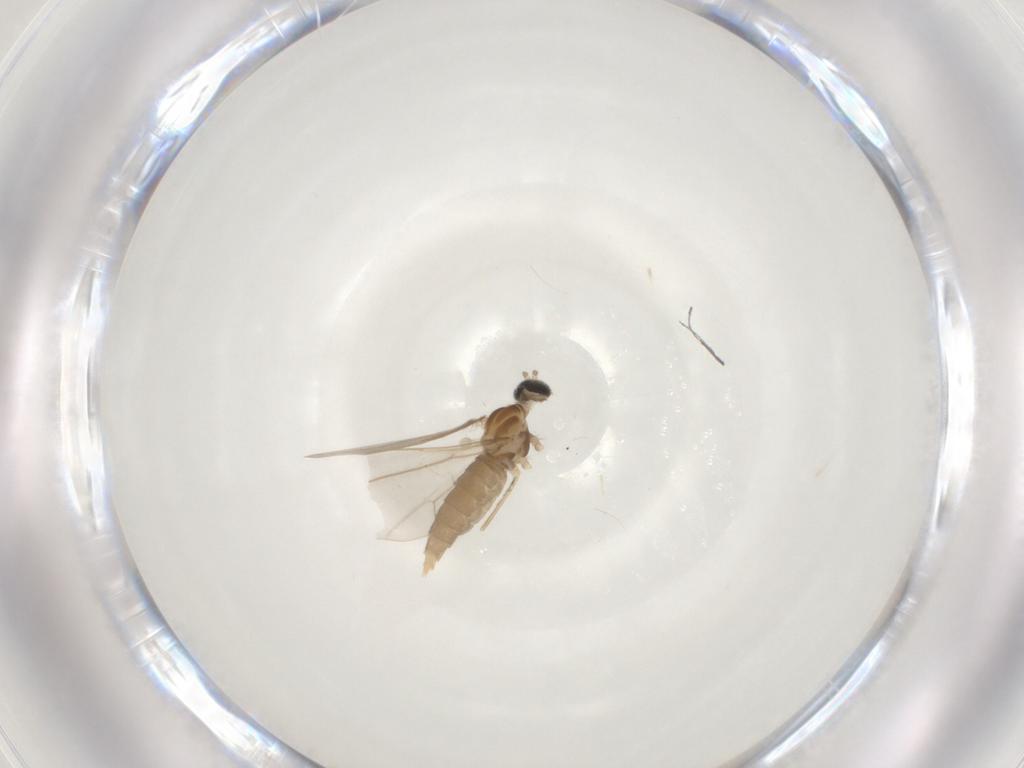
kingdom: Animalia
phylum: Arthropoda
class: Insecta
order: Diptera
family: Cecidomyiidae
